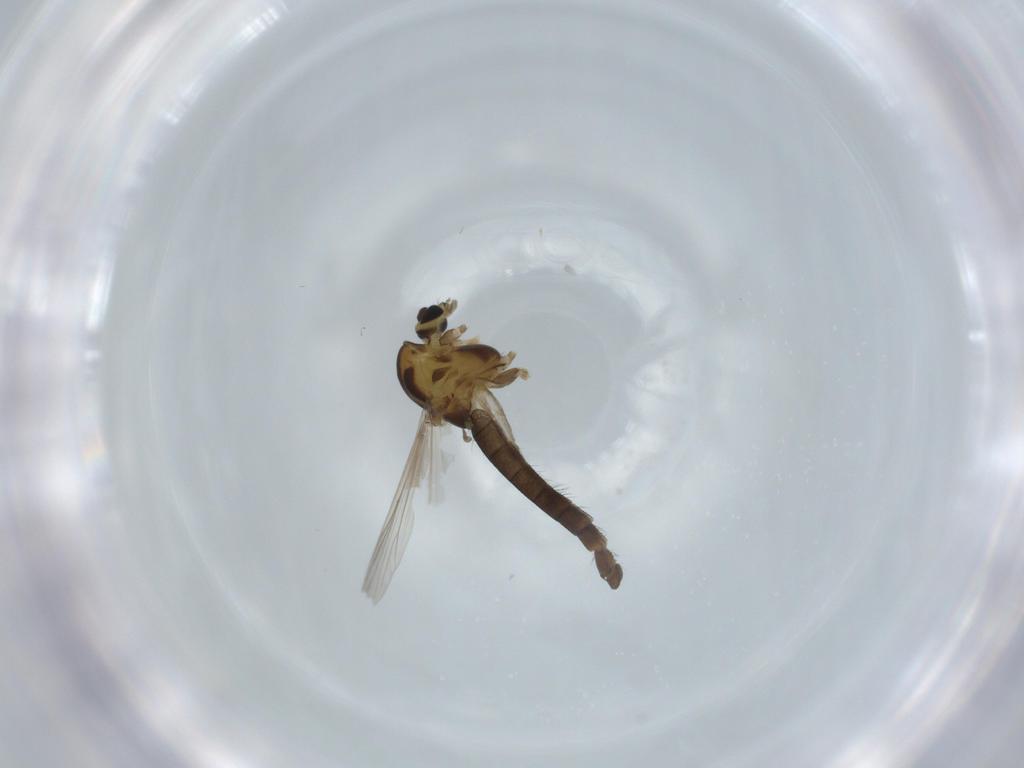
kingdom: Animalia
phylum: Arthropoda
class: Insecta
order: Diptera
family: Chironomidae
